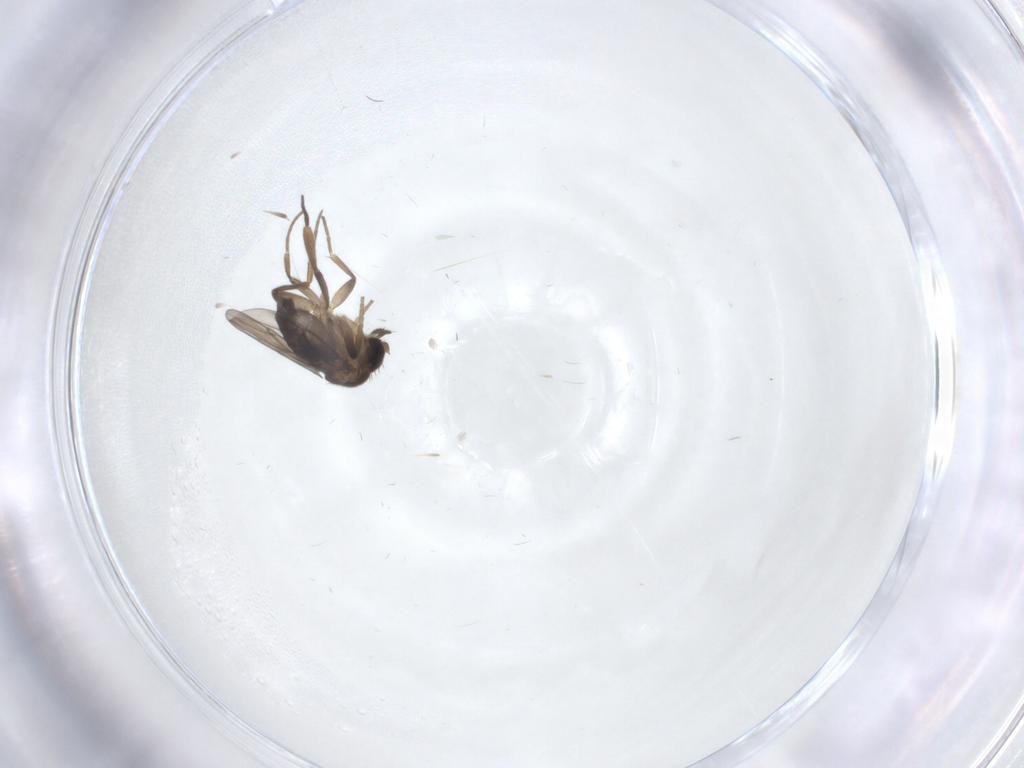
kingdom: Animalia
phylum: Arthropoda
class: Insecta
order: Diptera
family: Phoridae
